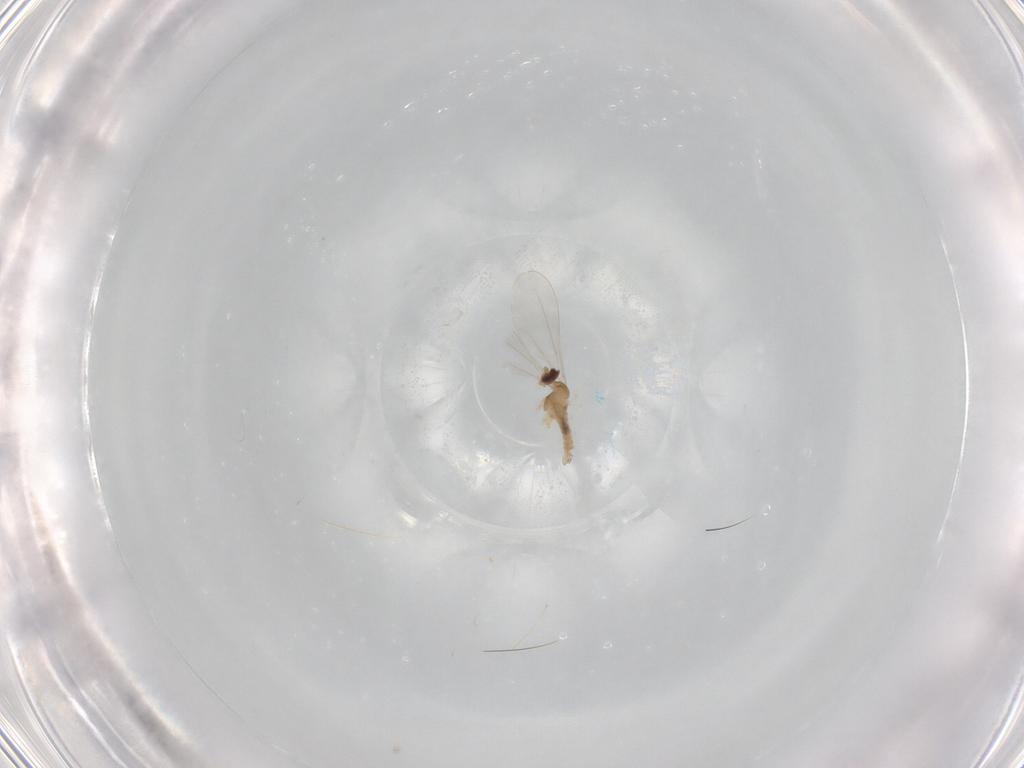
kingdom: Animalia
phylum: Arthropoda
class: Insecta
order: Diptera
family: Muscidae
